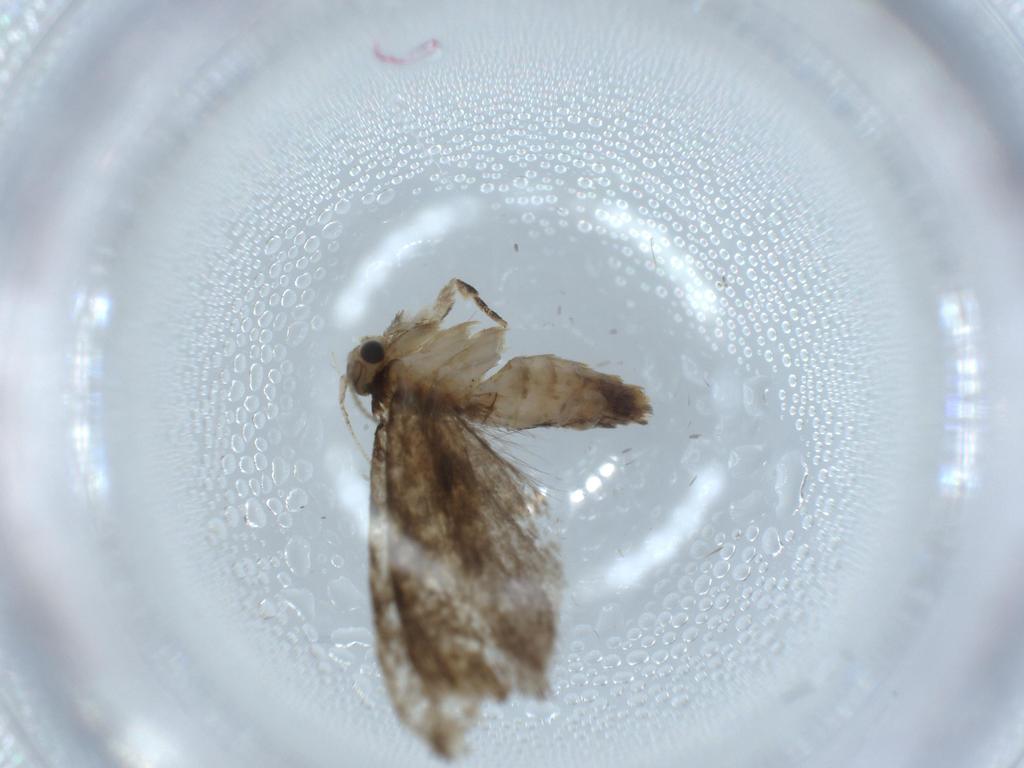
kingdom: Animalia
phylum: Arthropoda
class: Insecta
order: Lepidoptera
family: Tineidae
